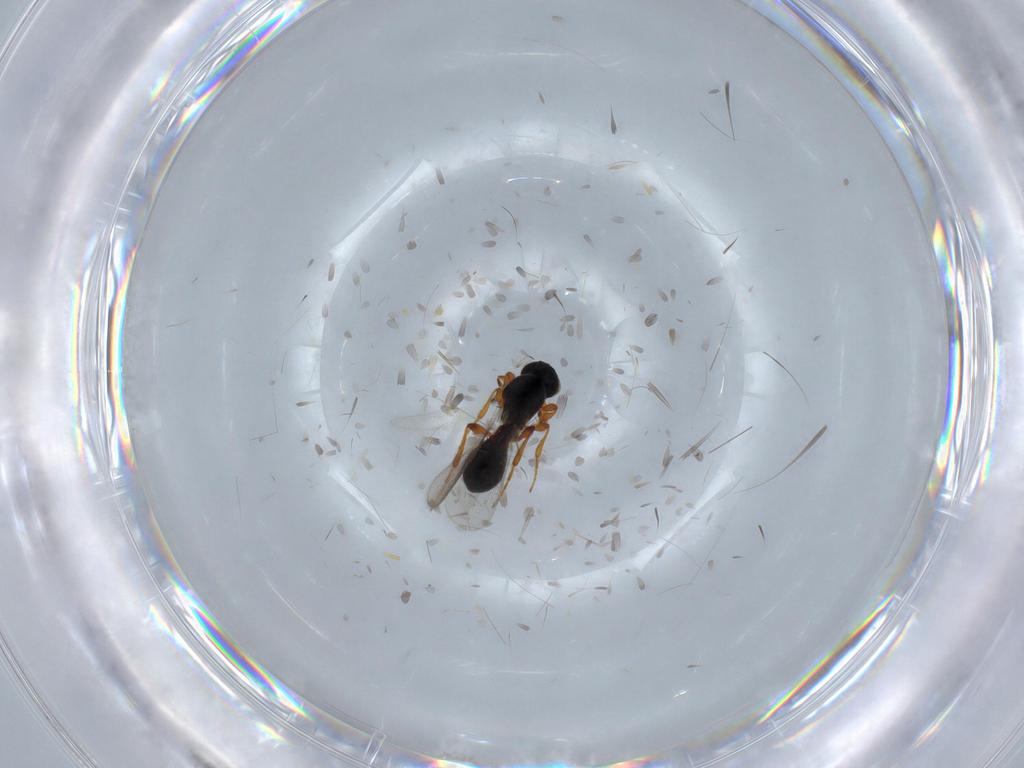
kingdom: Animalia
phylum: Arthropoda
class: Insecta
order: Hymenoptera
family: Platygastridae
